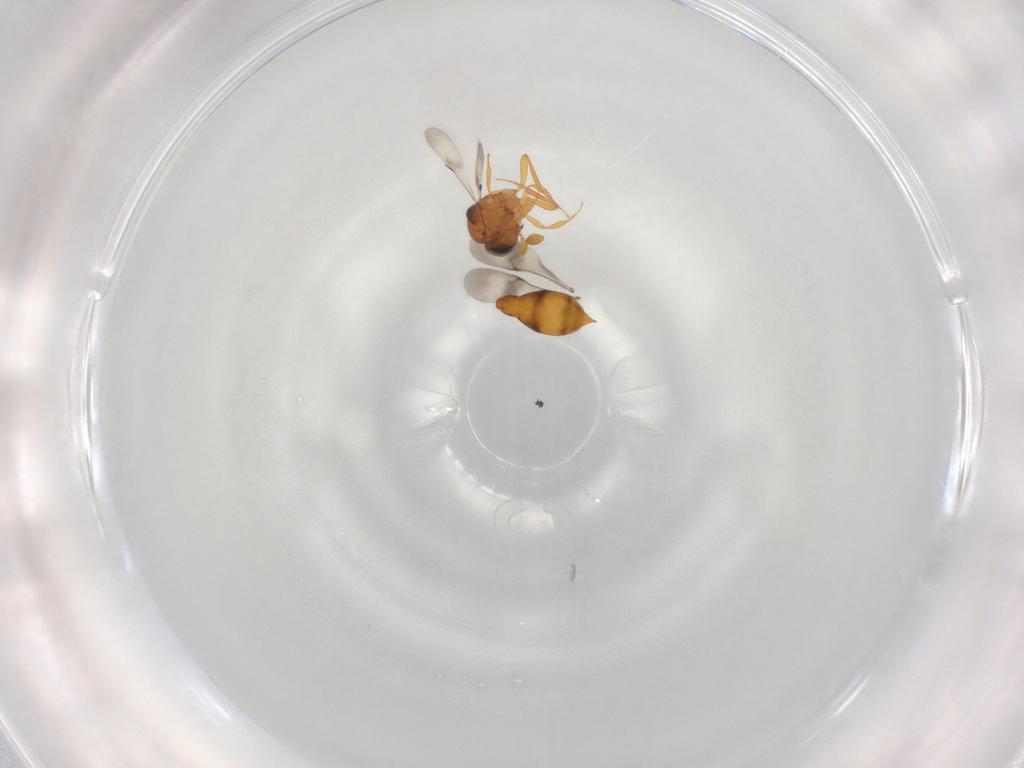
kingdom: Animalia
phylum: Arthropoda
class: Insecta
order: Hymenoptera
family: Scelionidae
